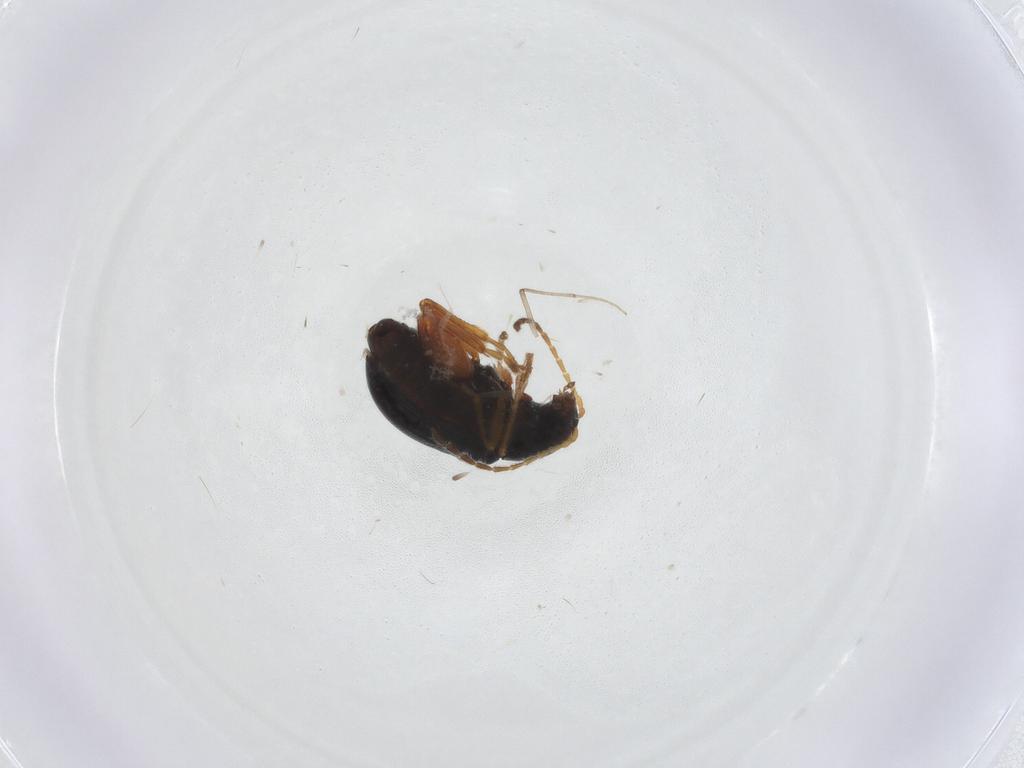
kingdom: Animalia
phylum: Arthropoda
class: Insecta
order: Coleoptera
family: Chrysomelidae
